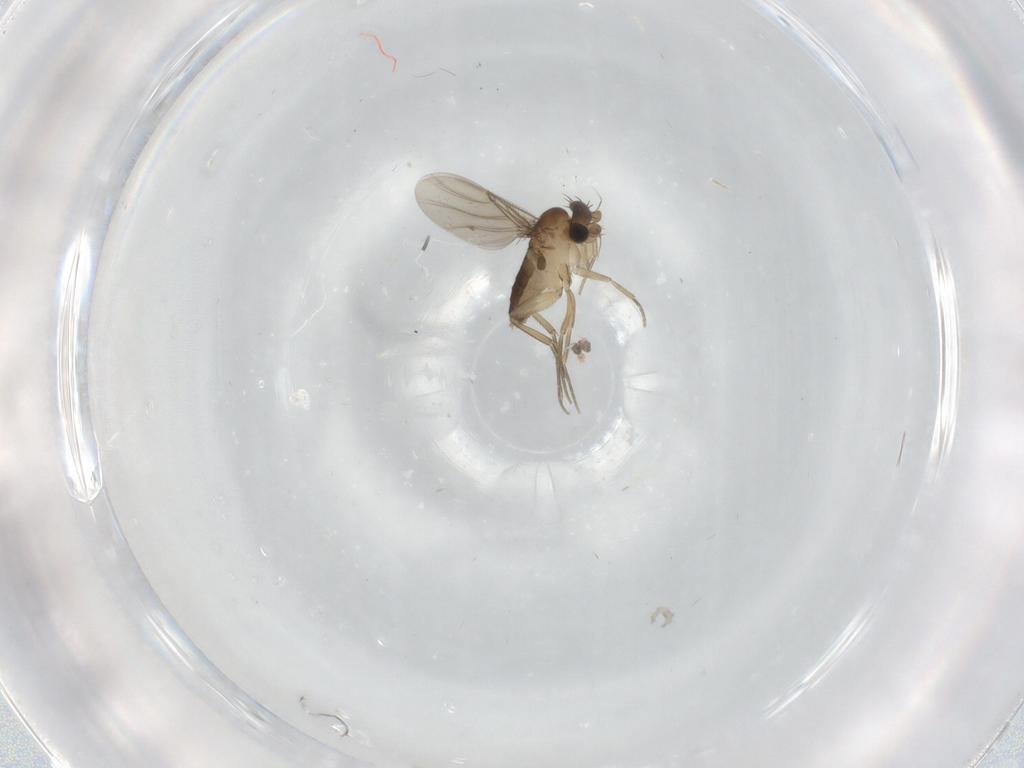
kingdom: Animalia
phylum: Arthropoda
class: Insecta
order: Diptera
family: Phoridae
